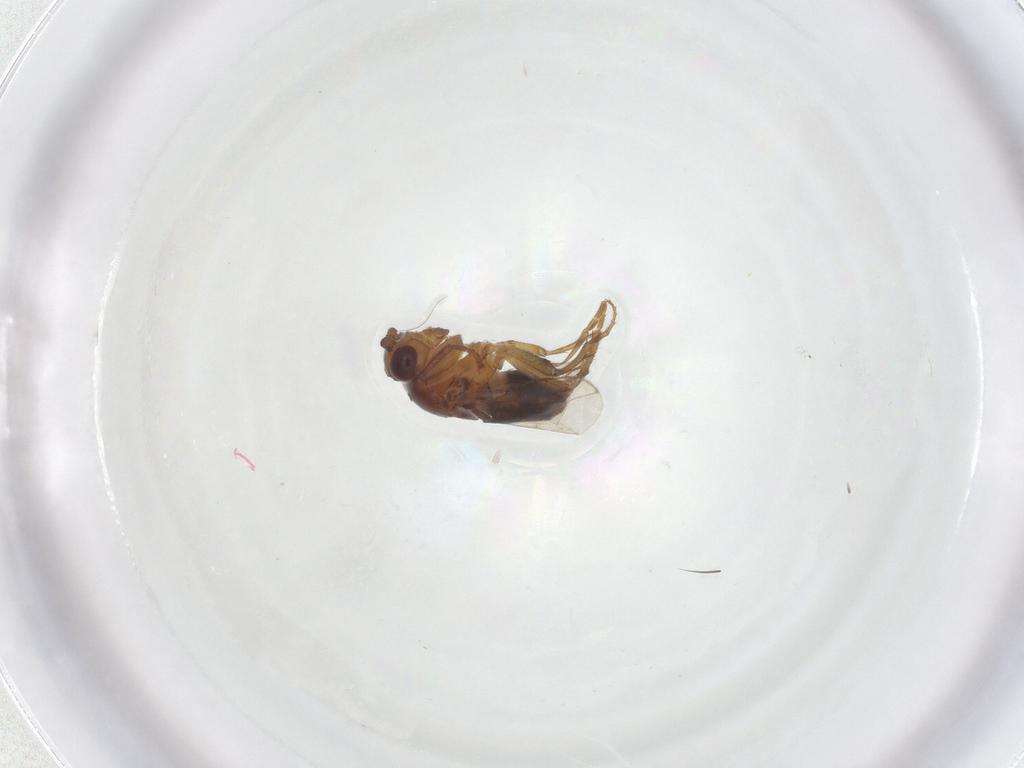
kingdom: Animalia
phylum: Arthropoda
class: Insecta
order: Diptera
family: Sphaeroceridae
